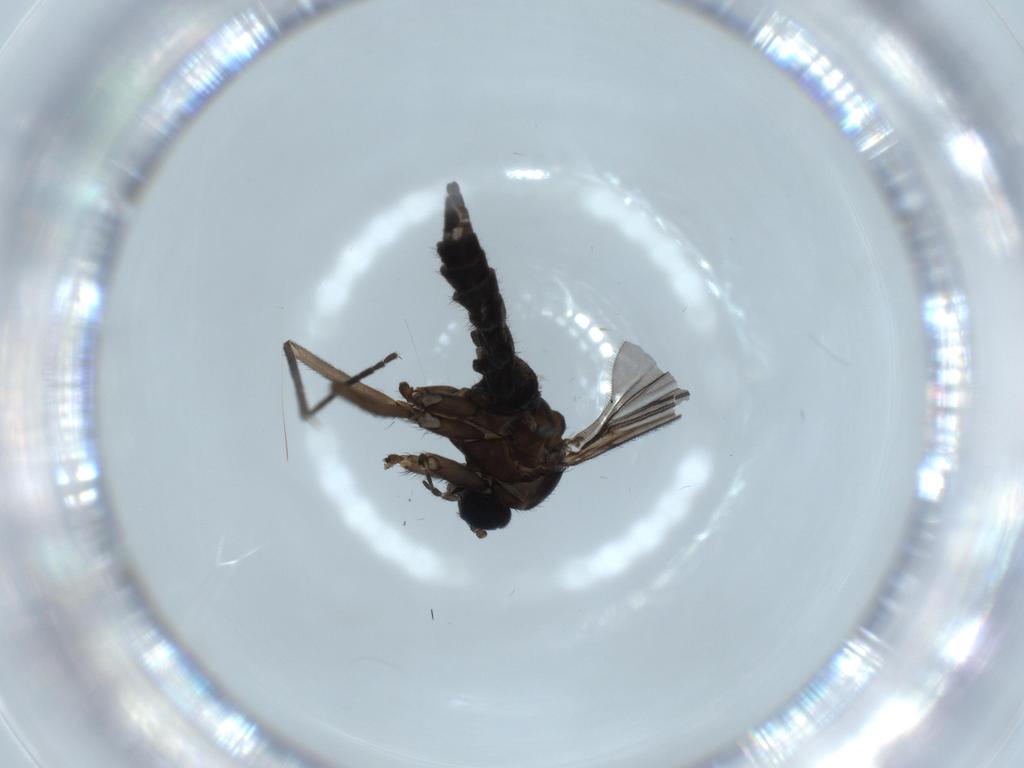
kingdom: Animalia
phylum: Arthropoda
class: Insecta
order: Diptera
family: Sciaridae
